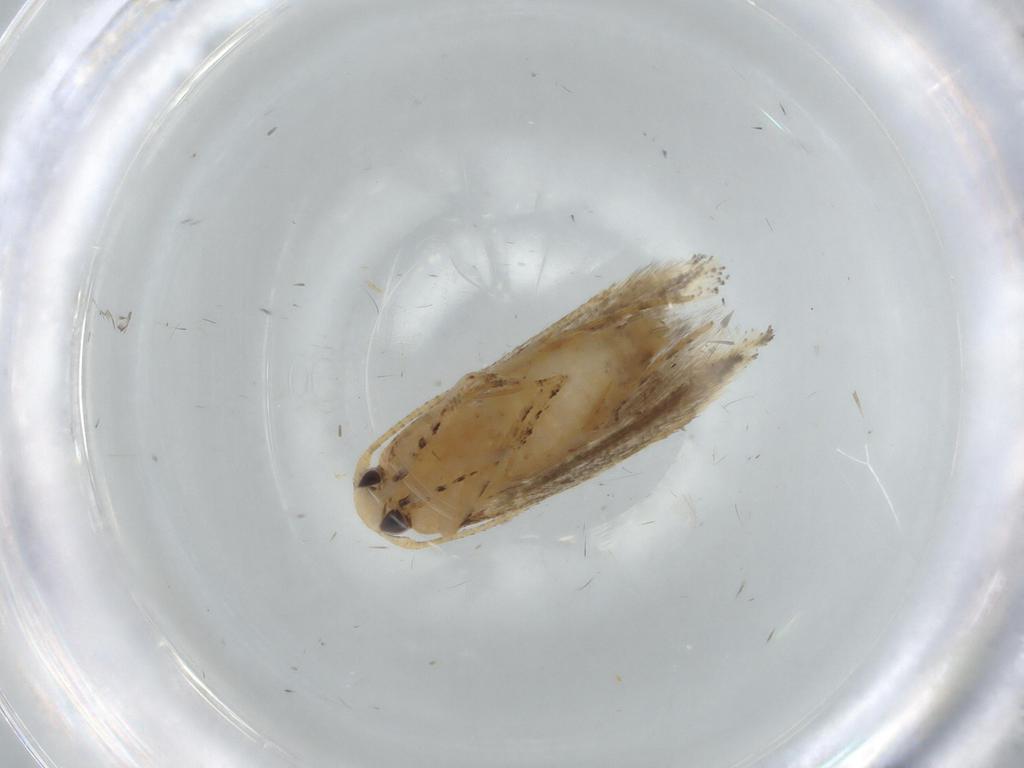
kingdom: Animalia
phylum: Arthropoda
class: Insecta
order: Lepidoptera
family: Gelechiidae
